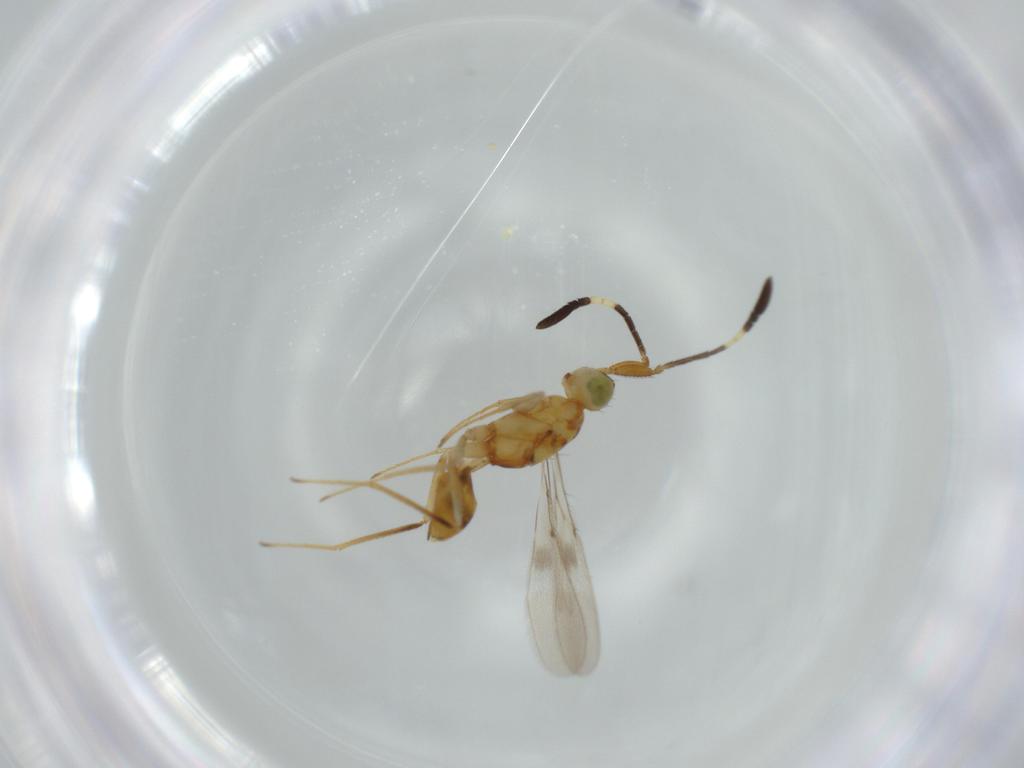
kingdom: Animalia
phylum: Arthropoda
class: Insecta
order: Hymenoptera
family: Mymaridae
